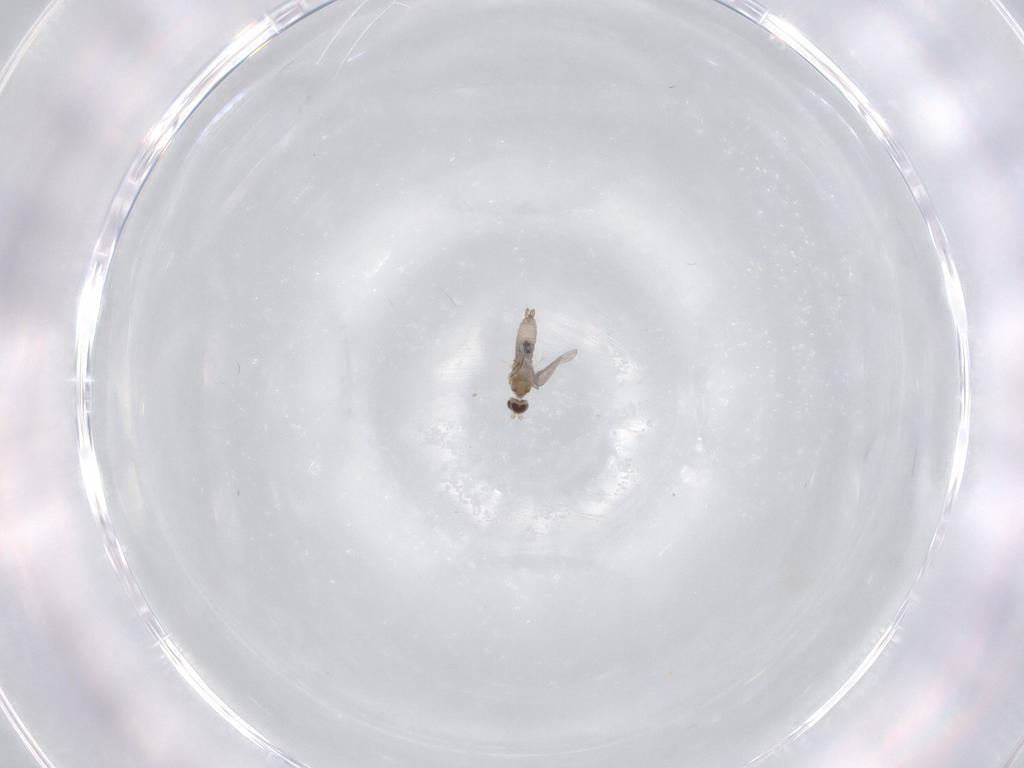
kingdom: Animalia
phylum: Arthropoda
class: Insecta
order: Diptera
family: Cecidomyiidae
